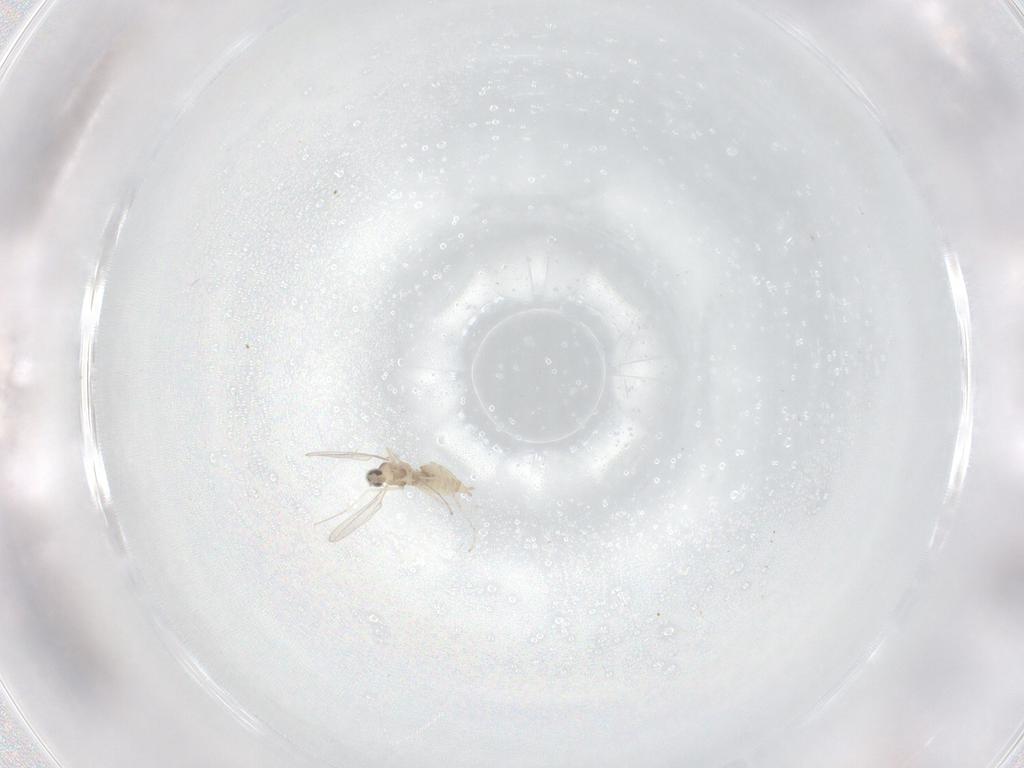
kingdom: Animalia
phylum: Arthropoda
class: Insecta
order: Diptera
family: Cecidomyiidae
